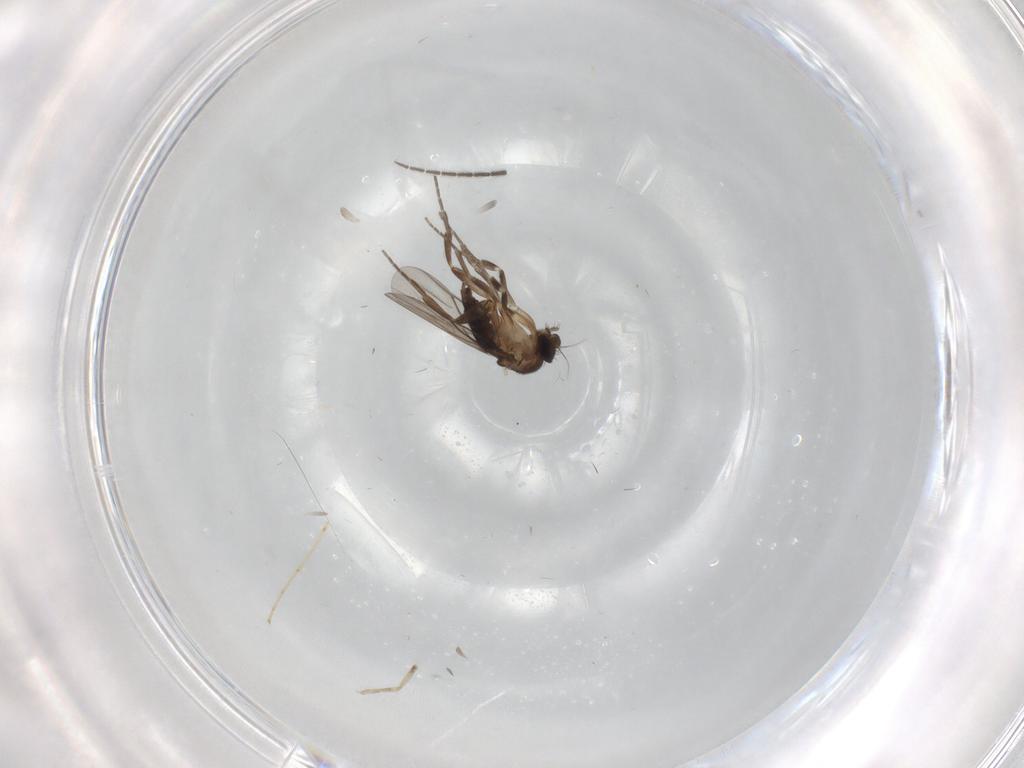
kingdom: Animalia
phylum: Arthropoda
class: Insecta
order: Diptera
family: Sciaridae
